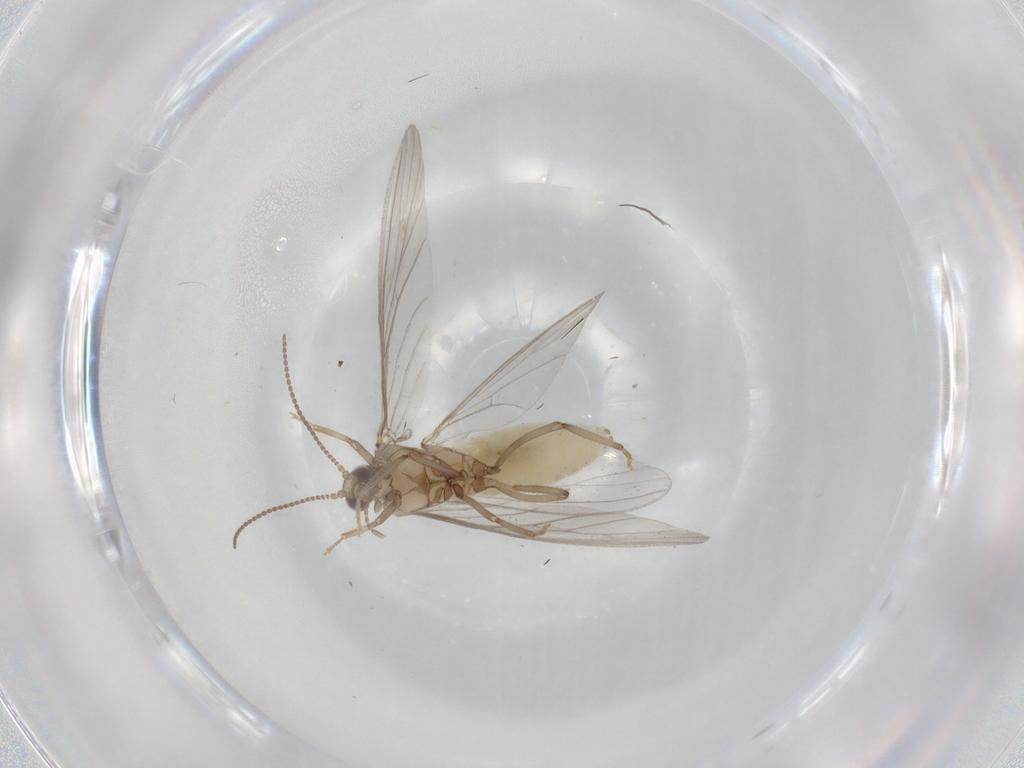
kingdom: Animalia
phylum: Arthropoda
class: Insecta
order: Neuroptera
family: Coniopterygidae
